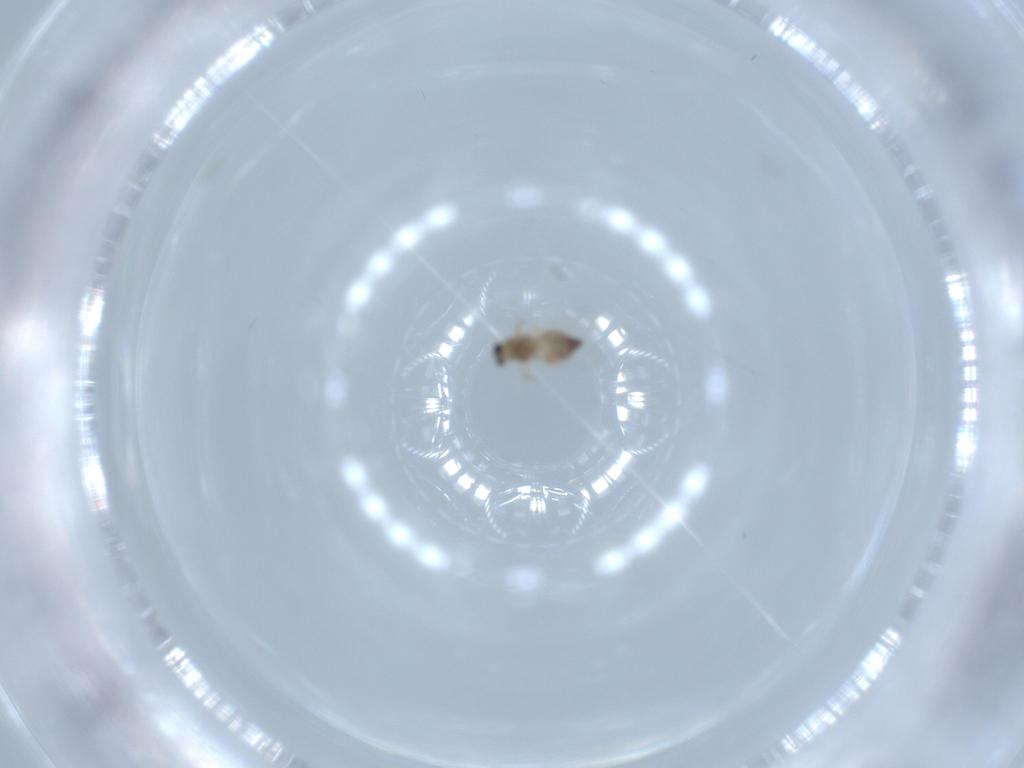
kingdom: Animalia
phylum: Arthropoda
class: Insecta
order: Diptera
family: Chironomidae
